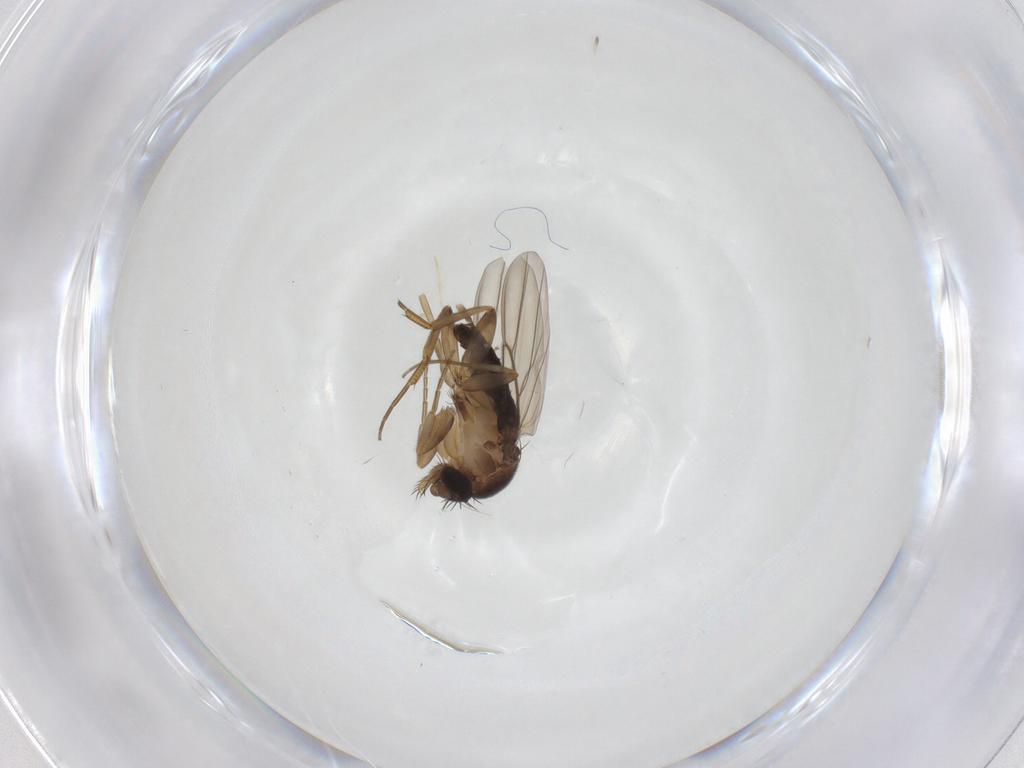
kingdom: Animalia
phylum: Arthropoda
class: Insecta
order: Diptera
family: Phoridae
